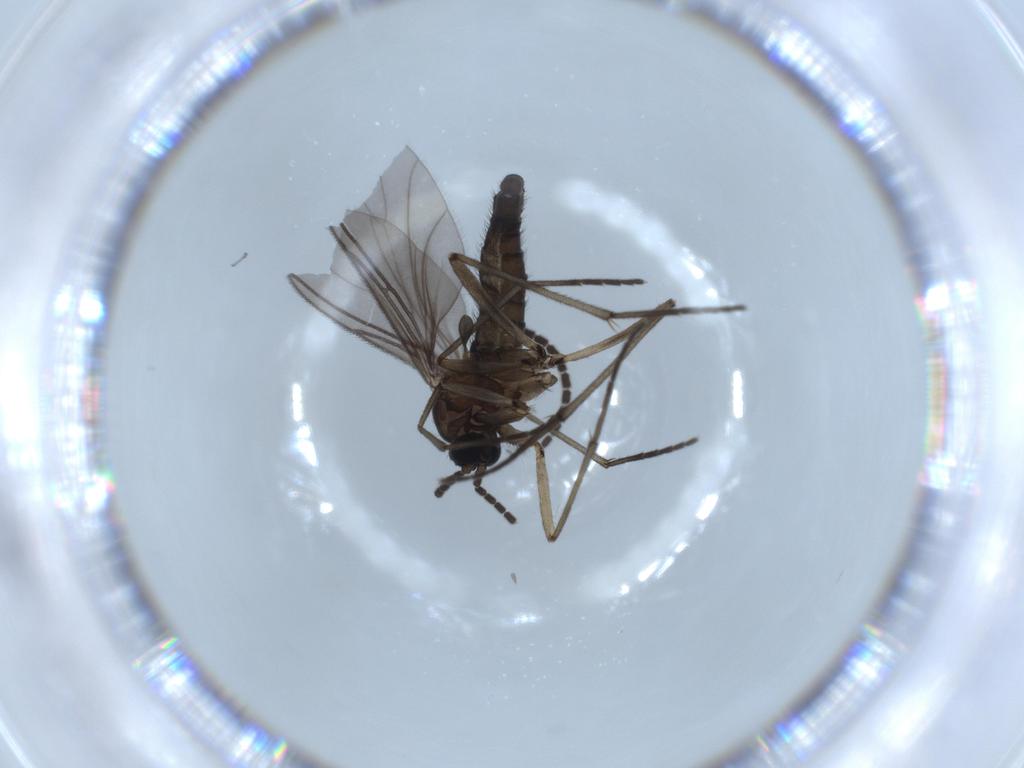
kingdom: Animalia
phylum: Arthropoda
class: Insecta
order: Diptera
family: Sciaridae
